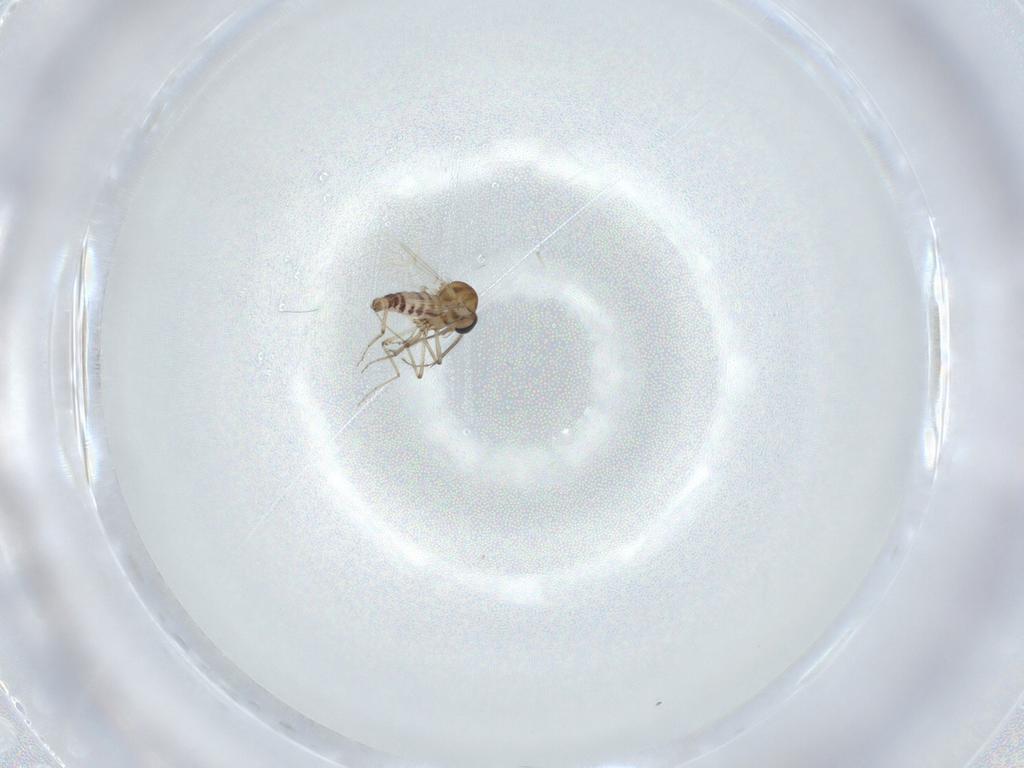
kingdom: Animalia
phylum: Arthropoda
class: Insecta
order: Diptera
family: Ceratopogonidae
